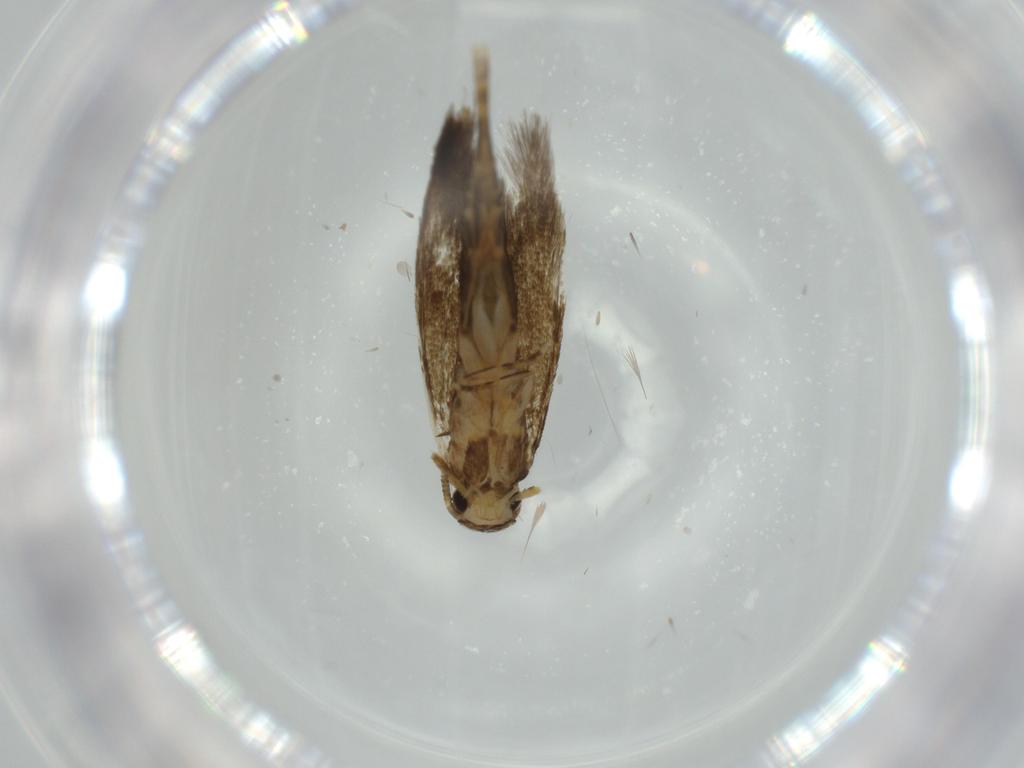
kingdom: Animalia
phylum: Arthropoda
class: Insecta
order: Lepidoptera
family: Tineidae
